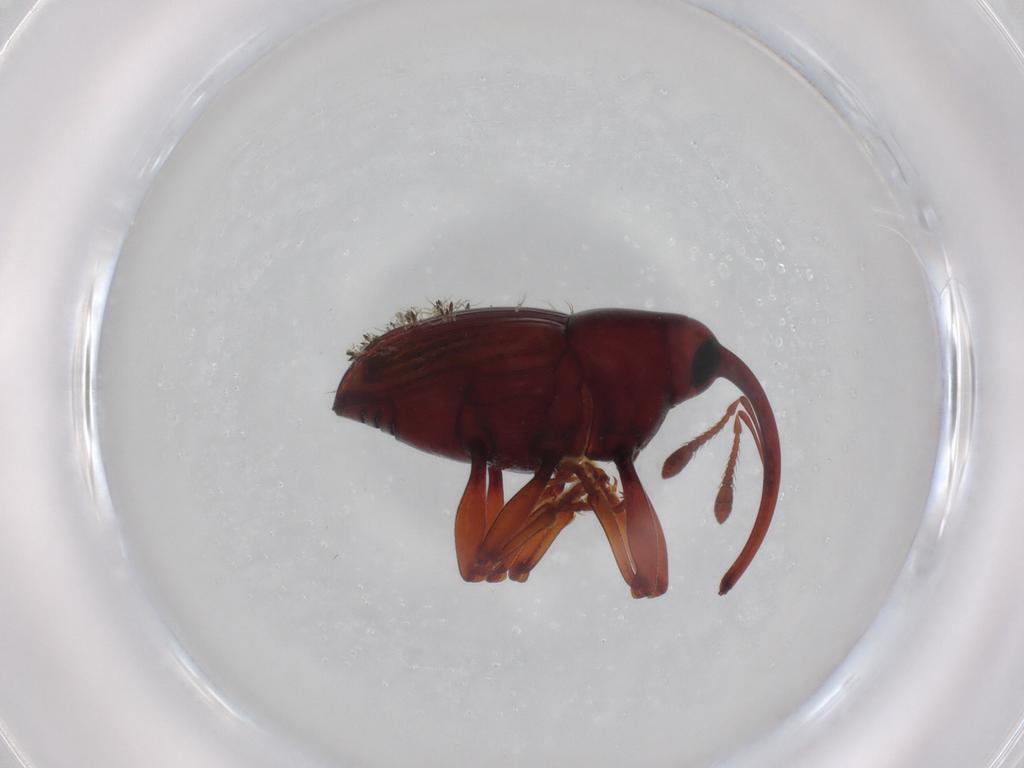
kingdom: Animalia
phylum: Arthropoda
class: Insecta
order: Coleoptera
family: Curculionidae
